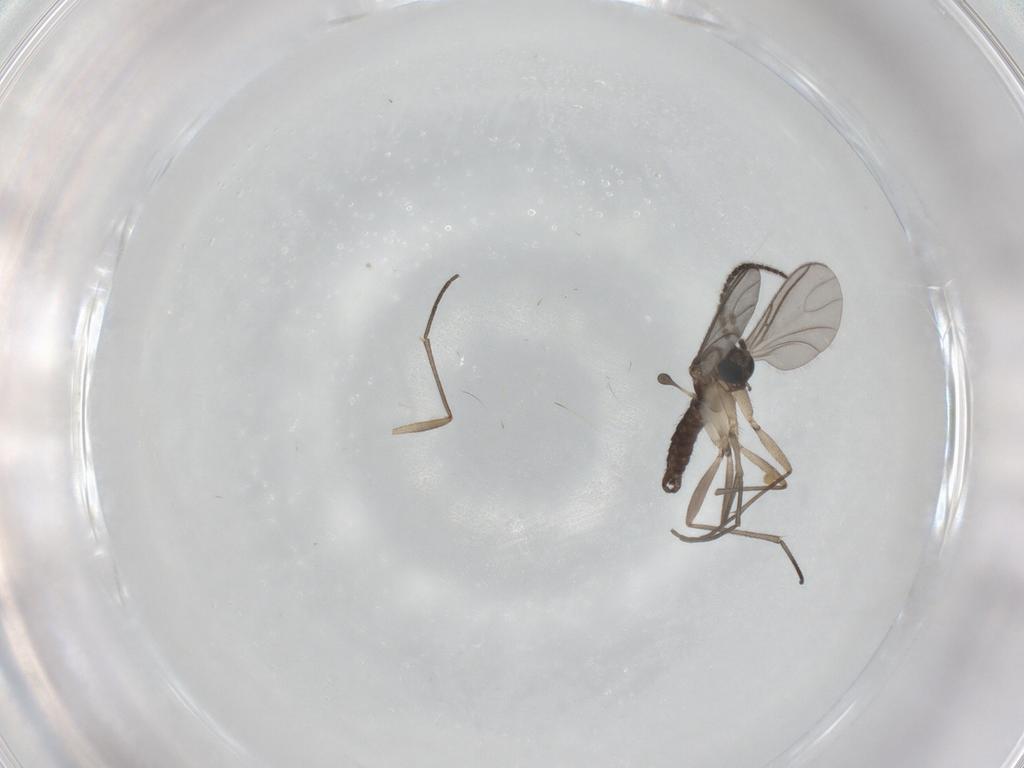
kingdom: Animalia
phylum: Arthropoda
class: Insecta
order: Diptera
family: Sciaridae
